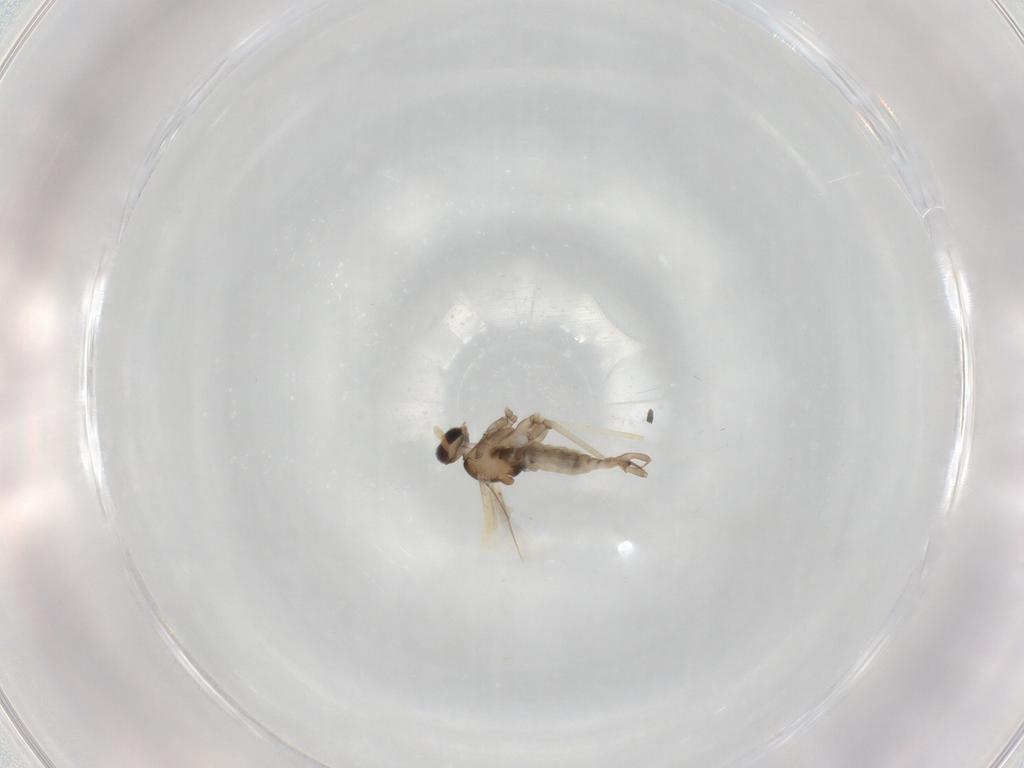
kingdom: Animalia
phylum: Arthropoda
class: Insecta
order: Diptera
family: Cecidomyiidae
